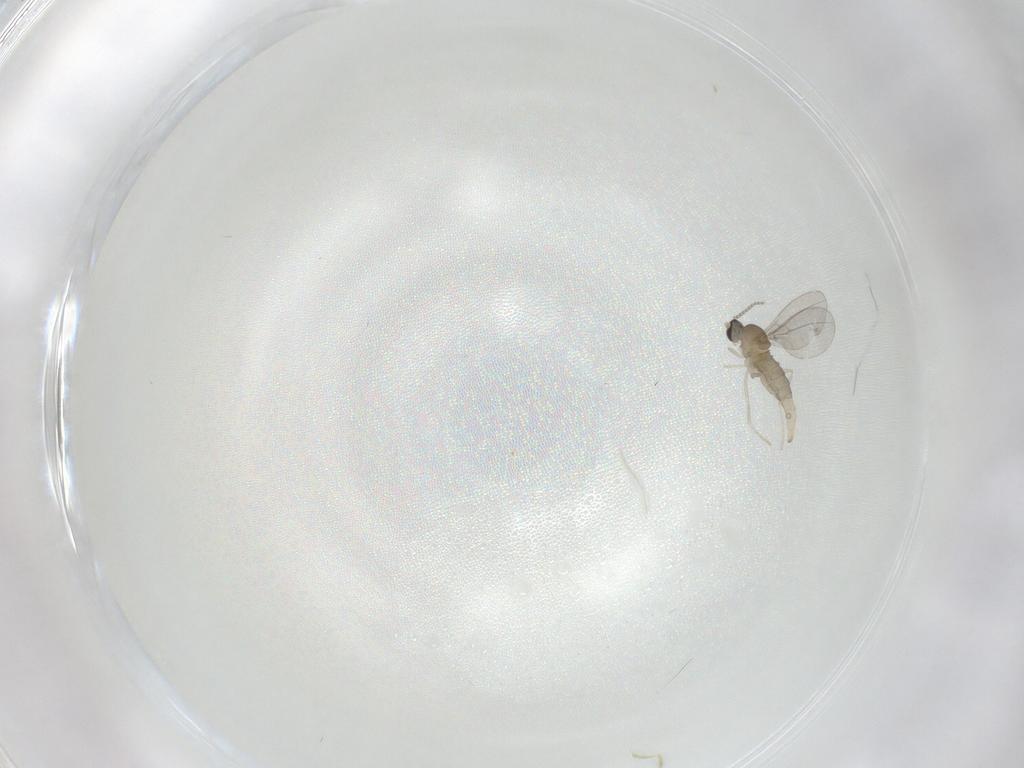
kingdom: Animalia
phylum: Arthropoda
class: Insecta
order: Diptera
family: Cecidomyiidae
